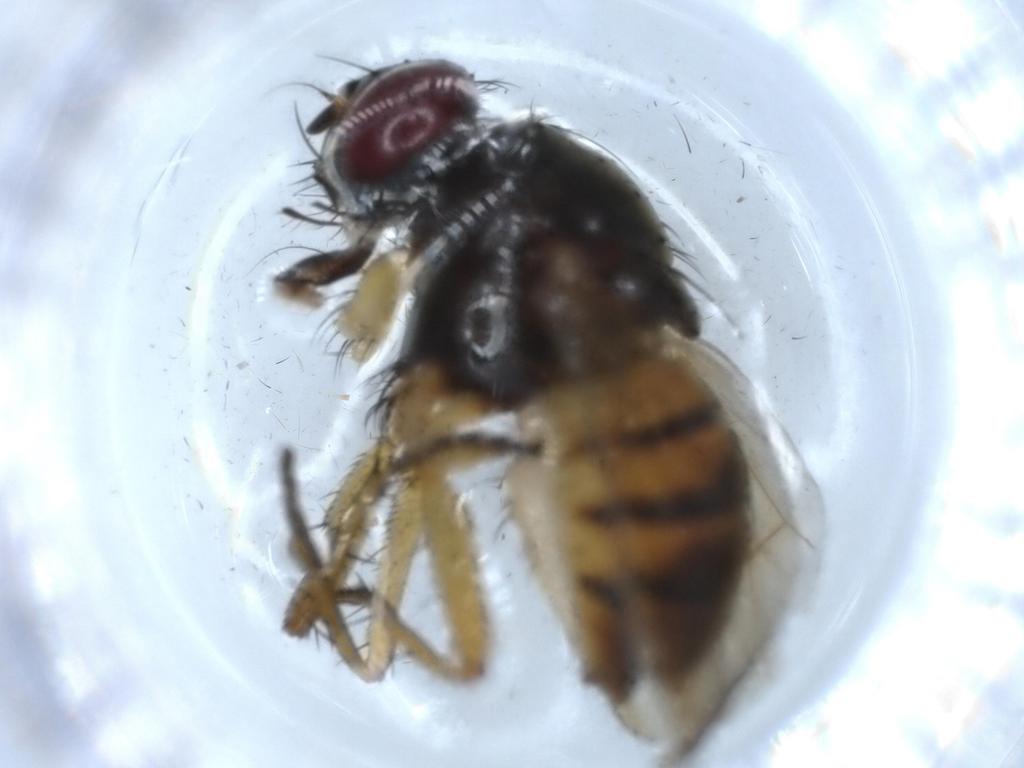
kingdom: Animalia
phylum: Arthropoda
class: Insecta
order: Diptera
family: Muscidae
